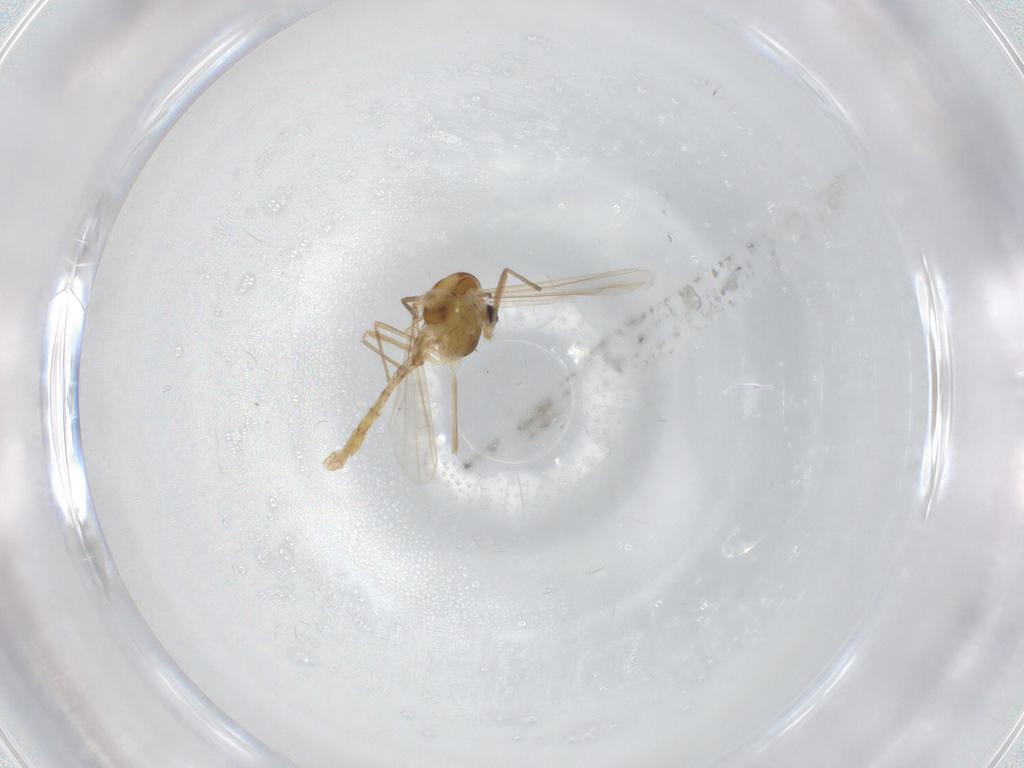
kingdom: Animalia
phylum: Arthropoda
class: Insecta
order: Diptera
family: Chironomidae
